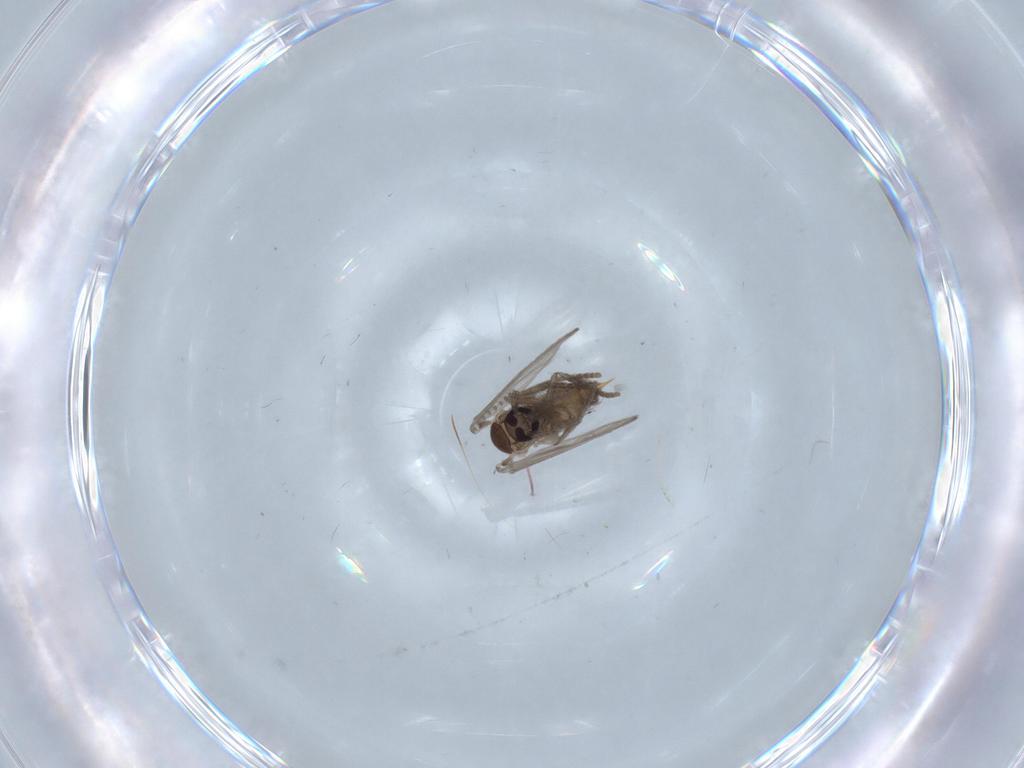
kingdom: Animalia
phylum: Arthropoda
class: Insecta
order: Diptera
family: Psychodidae
